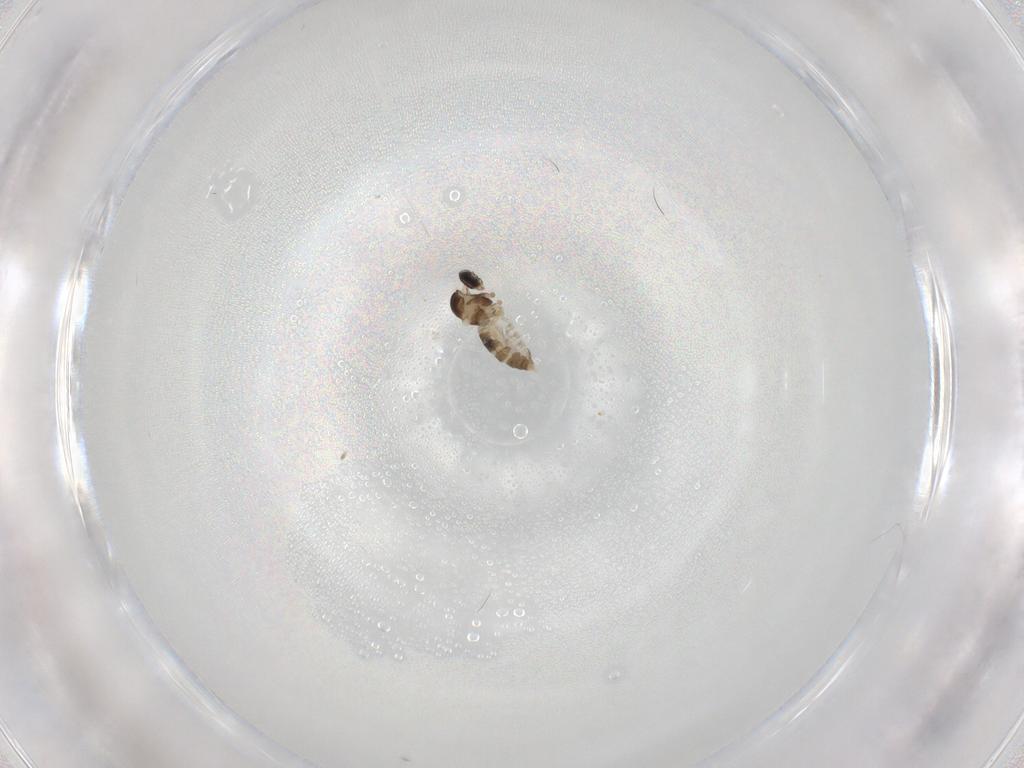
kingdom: Animalia
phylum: Arthropoda
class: Insecta
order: Diptera
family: Cecidomyiidae
